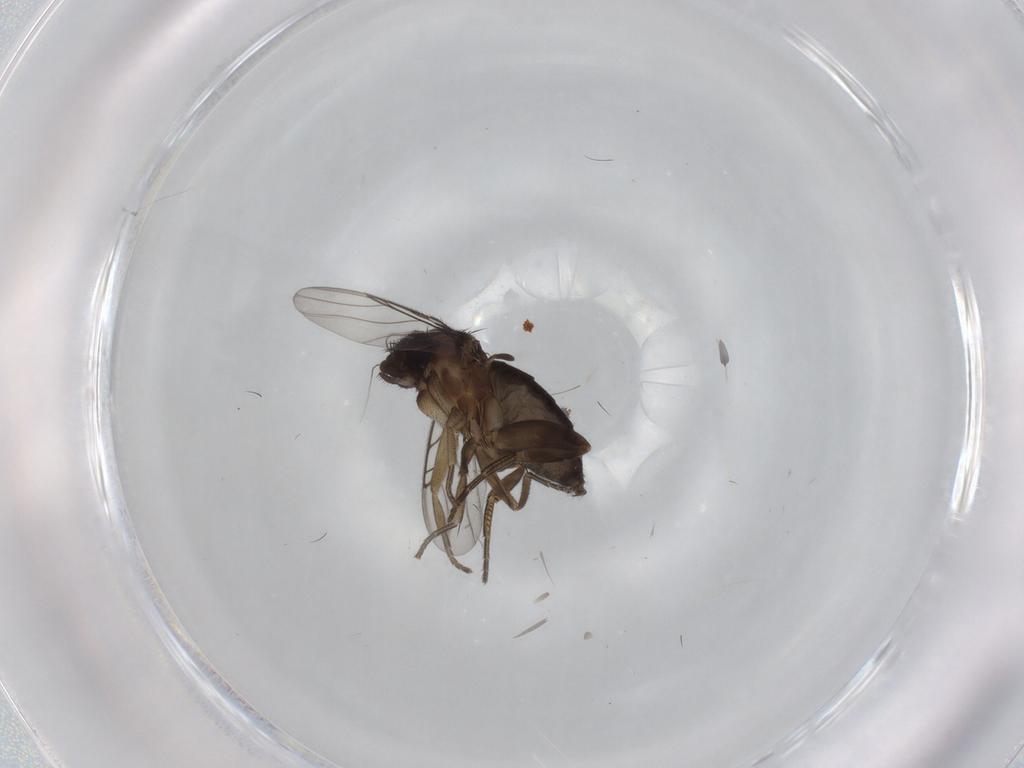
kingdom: Animalia
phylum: Arthropoda
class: Insecta
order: Diptera
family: Phoridae
